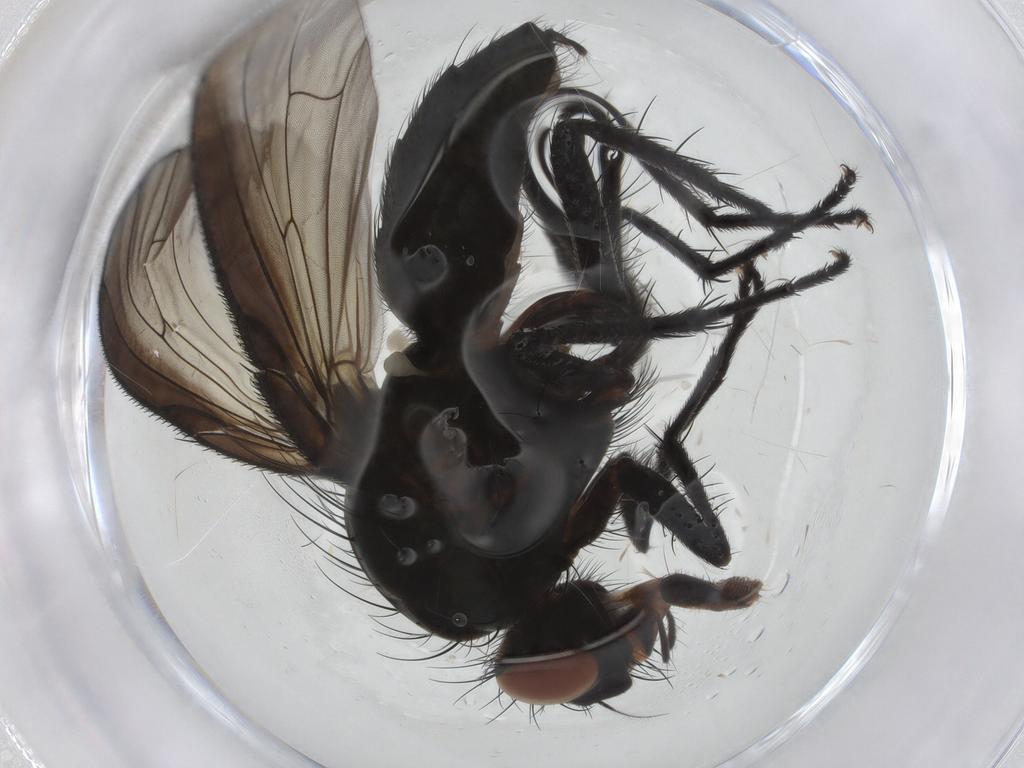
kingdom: Animalia
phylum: Arthropoda
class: Insecta
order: Diptera
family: Anthomyiidae
